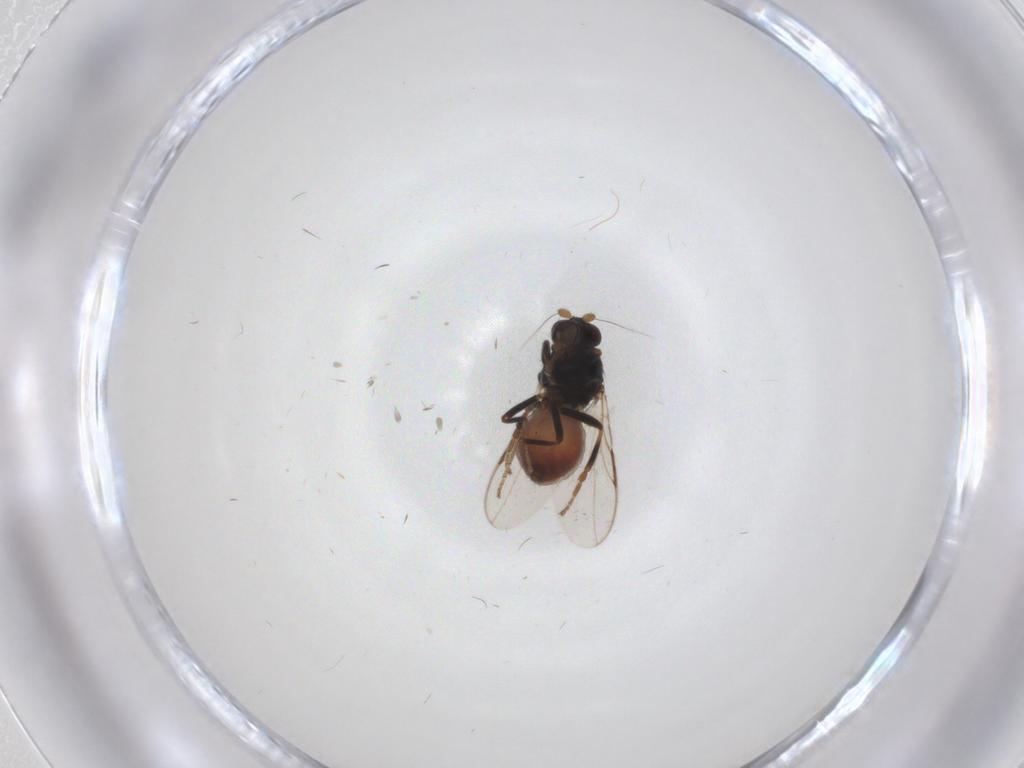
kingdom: Animalia
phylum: Arthropoda
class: Insecta
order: Diptera
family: Sphaeroceridae
